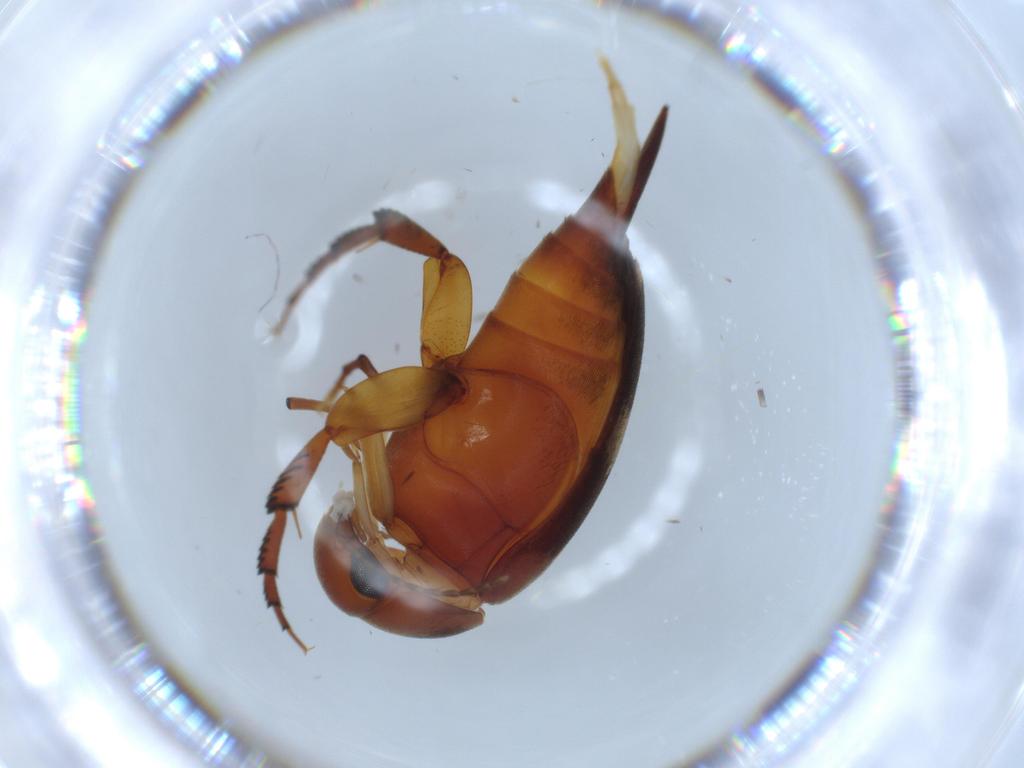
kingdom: Animalia
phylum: Arthropoda
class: Insecta
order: Coleoptera
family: Mordellidae
